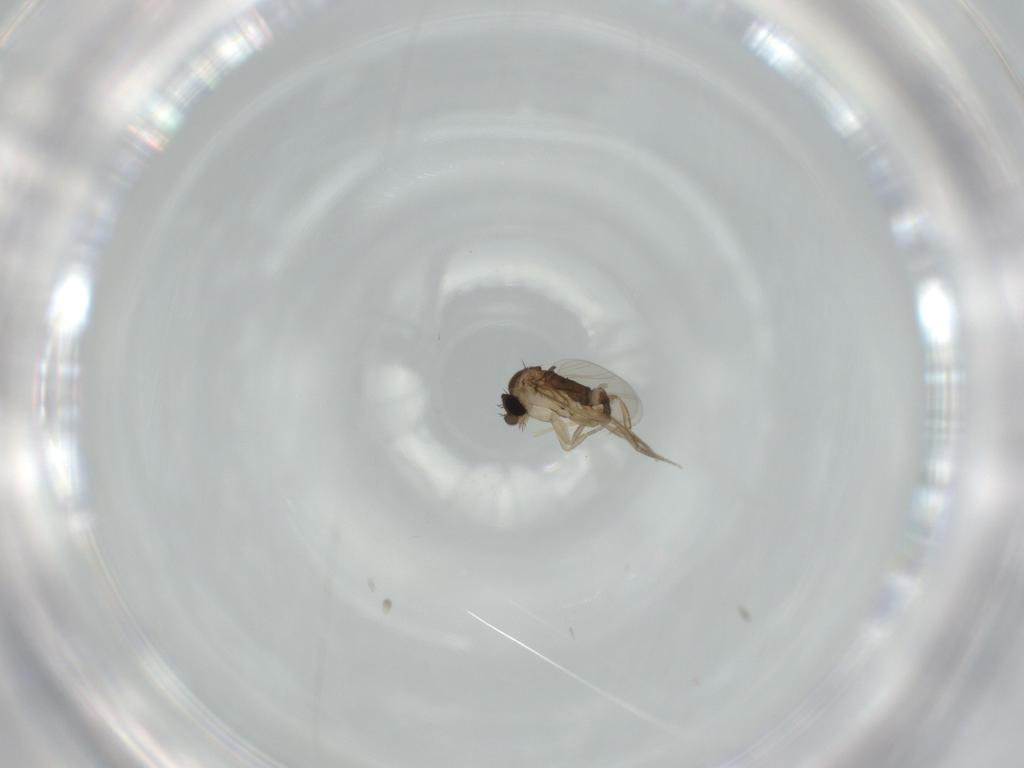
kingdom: Animalia
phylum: Arthropoda
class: Insecta
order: Diptera
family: Phoridae
